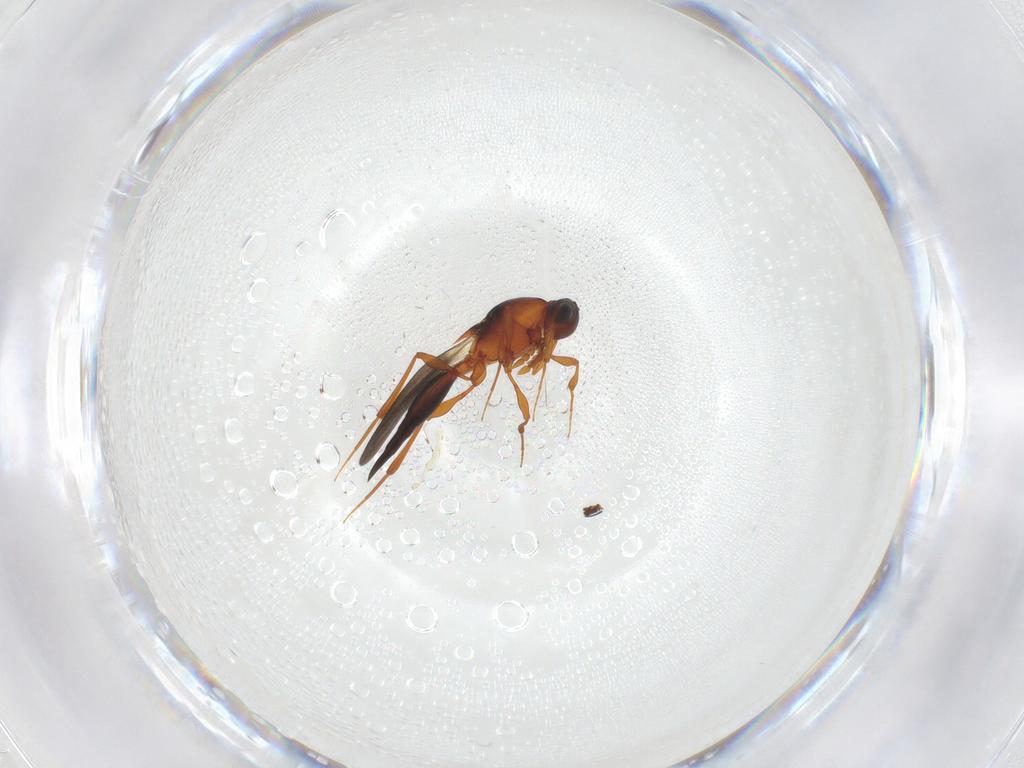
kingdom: Animalia
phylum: Arthropoda
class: Insecta
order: Hymenoptera
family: Platygastridae
